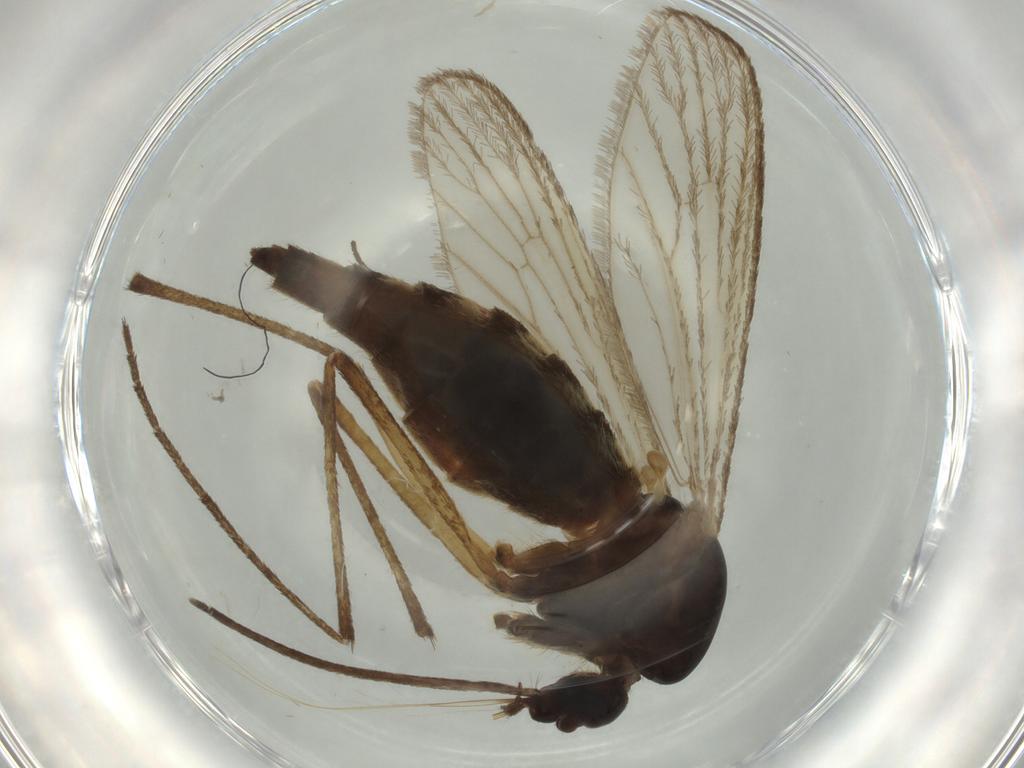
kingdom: Animalia
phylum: Arthropoda
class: Insecta
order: Diptera
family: Culicidae
